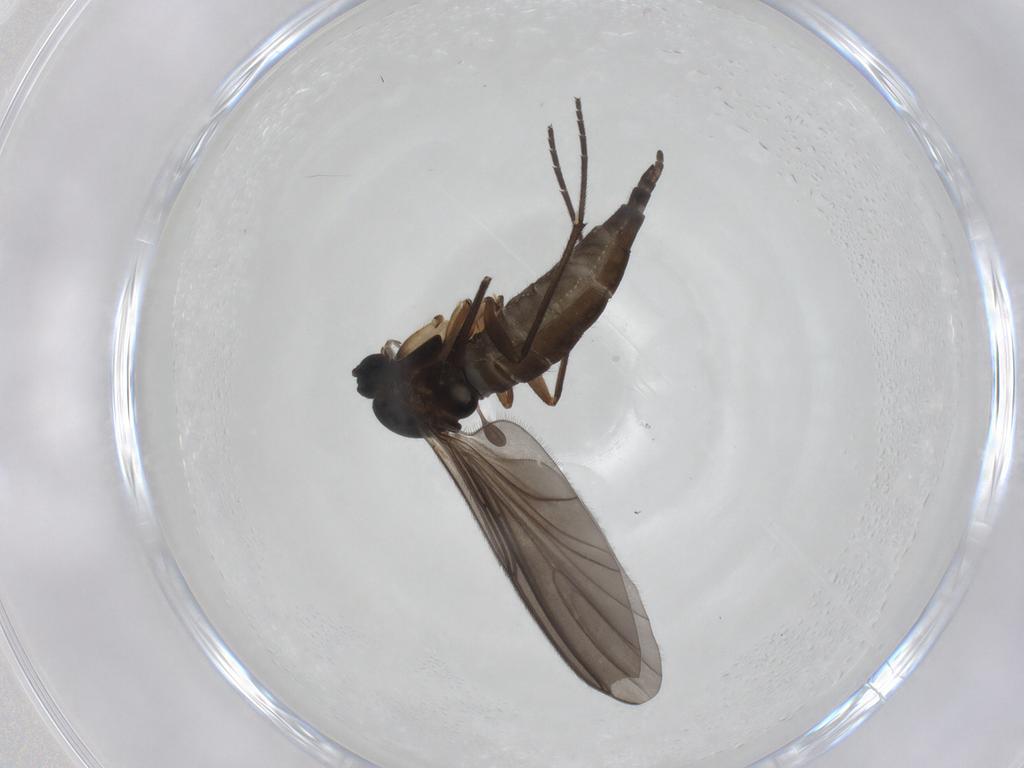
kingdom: Animalia
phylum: Arthropoda
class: Insecta
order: Diptera
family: Sciaridae
